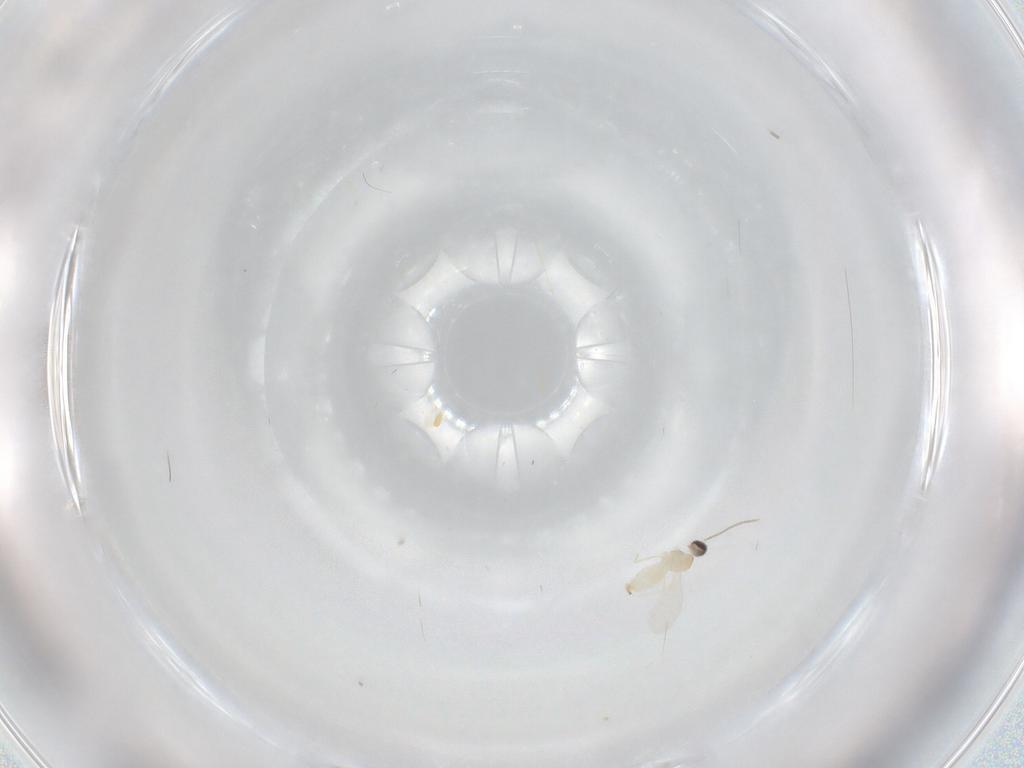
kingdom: Animalia
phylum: Arthropoda
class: Insecta
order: Diptera
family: Cecidomyiidae
